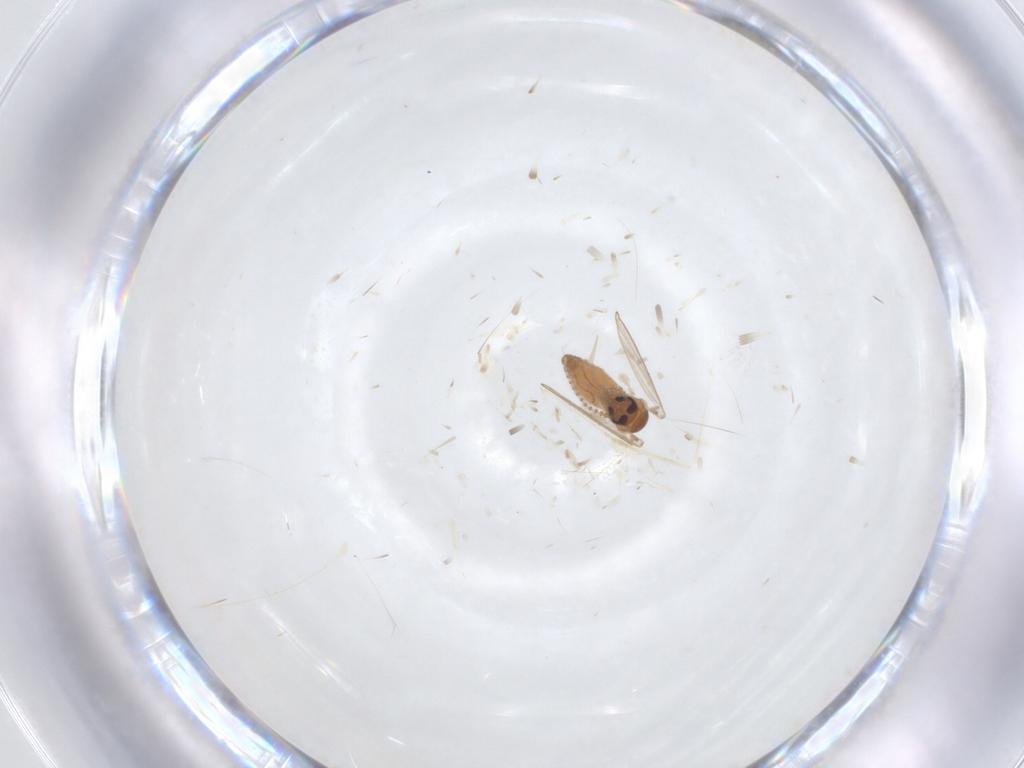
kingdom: Animalia
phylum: Arthropoda
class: Insecta
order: Diptera
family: Cecidomyiidae
